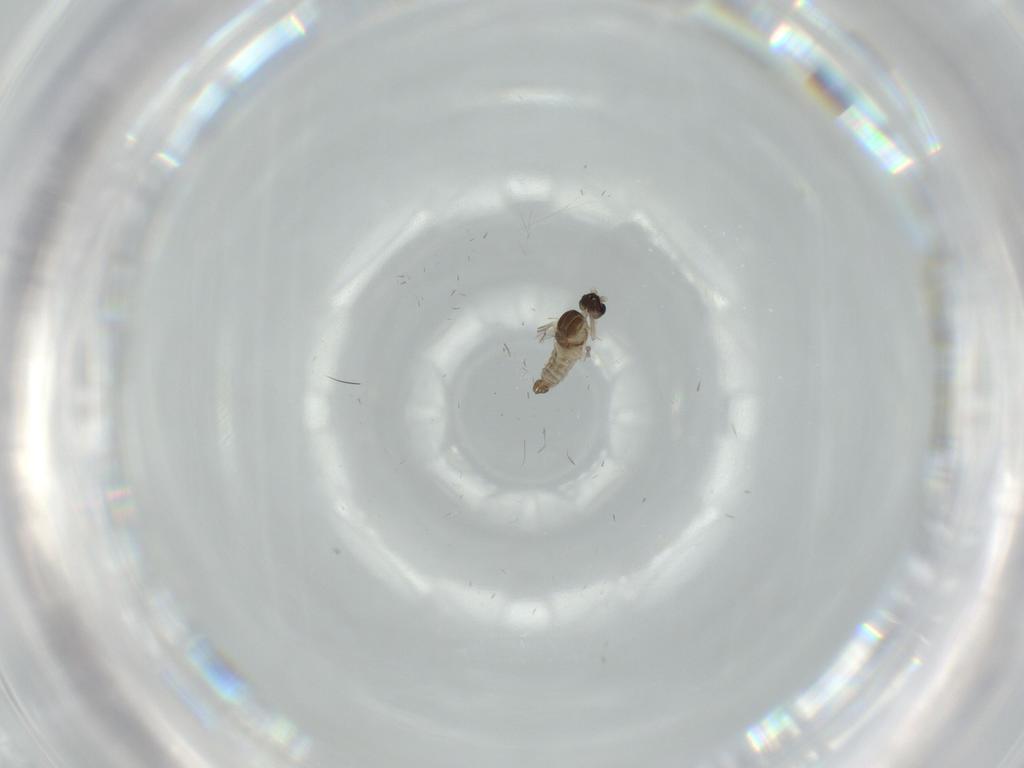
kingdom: Animalia
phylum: Arthropoda
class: Insecta
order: Diptera
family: Cecidomyiidae
